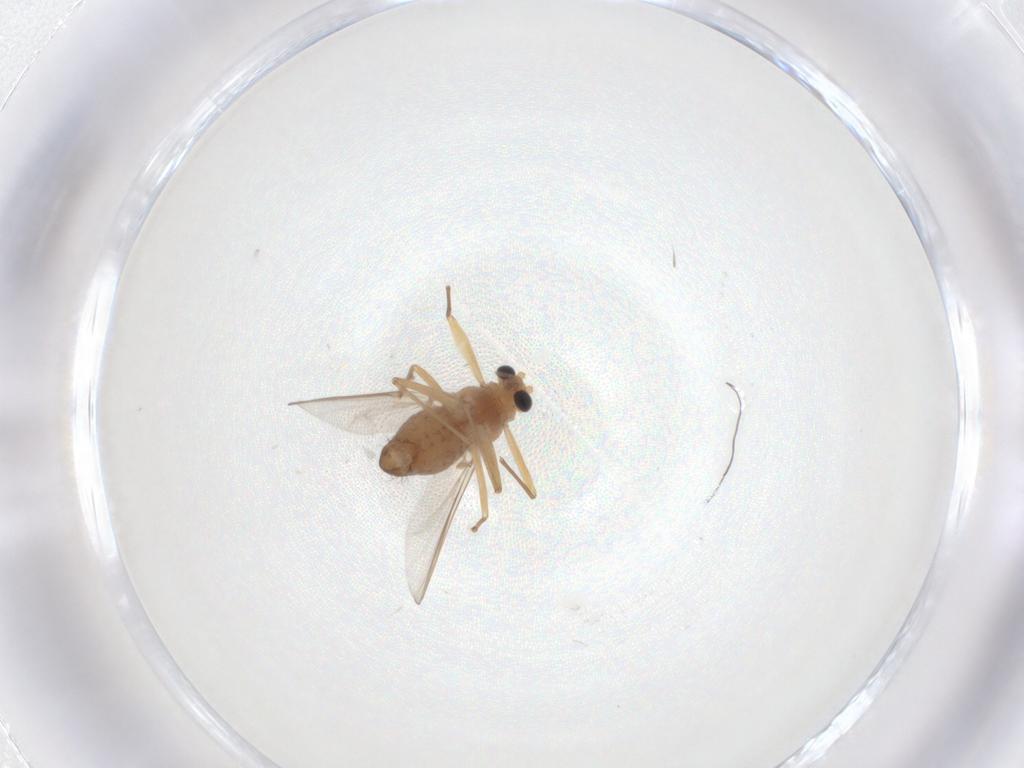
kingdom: Animalia
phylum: Arthropoda
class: Insecta
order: Diptera
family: Chironomidae
